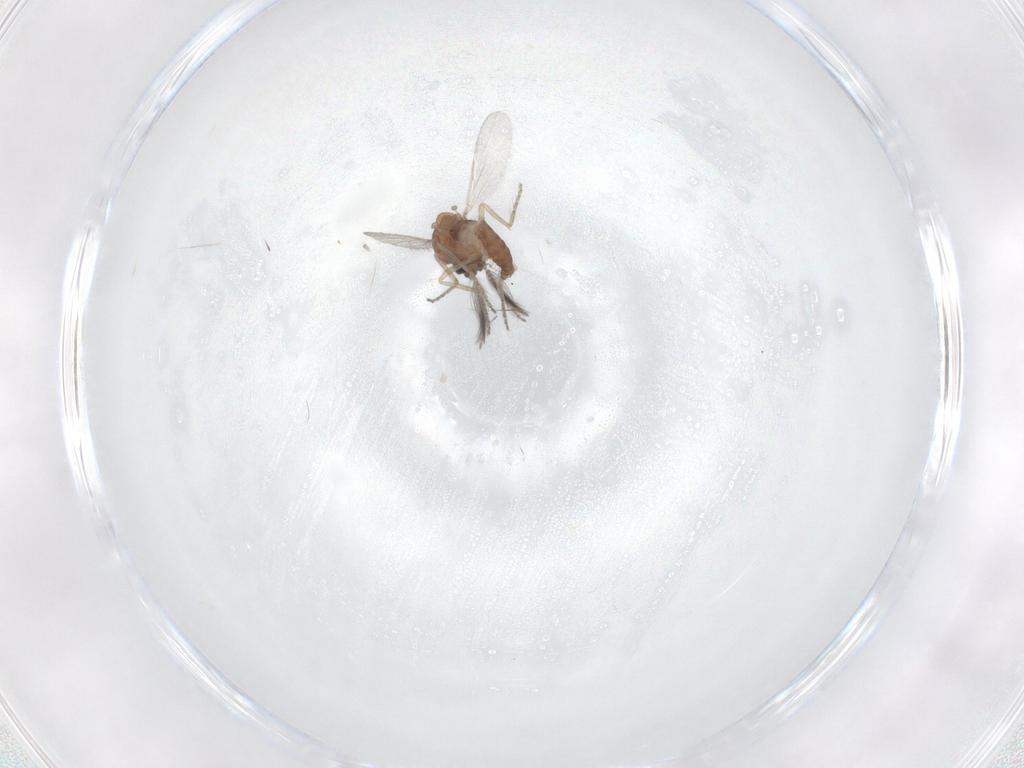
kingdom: Animalia
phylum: Arthropoda
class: Insecta
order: Diptera
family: Ceratopogonidae
